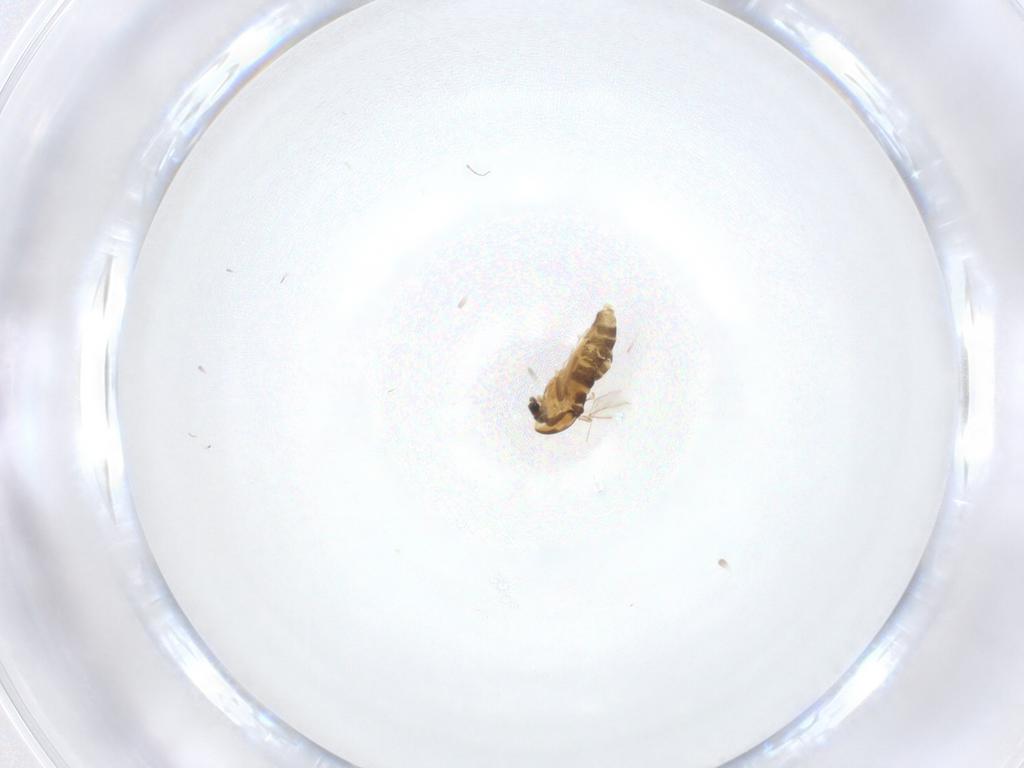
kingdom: Animalia
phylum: Arthropoda
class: Insecta
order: Diptera
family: Chironomidae
